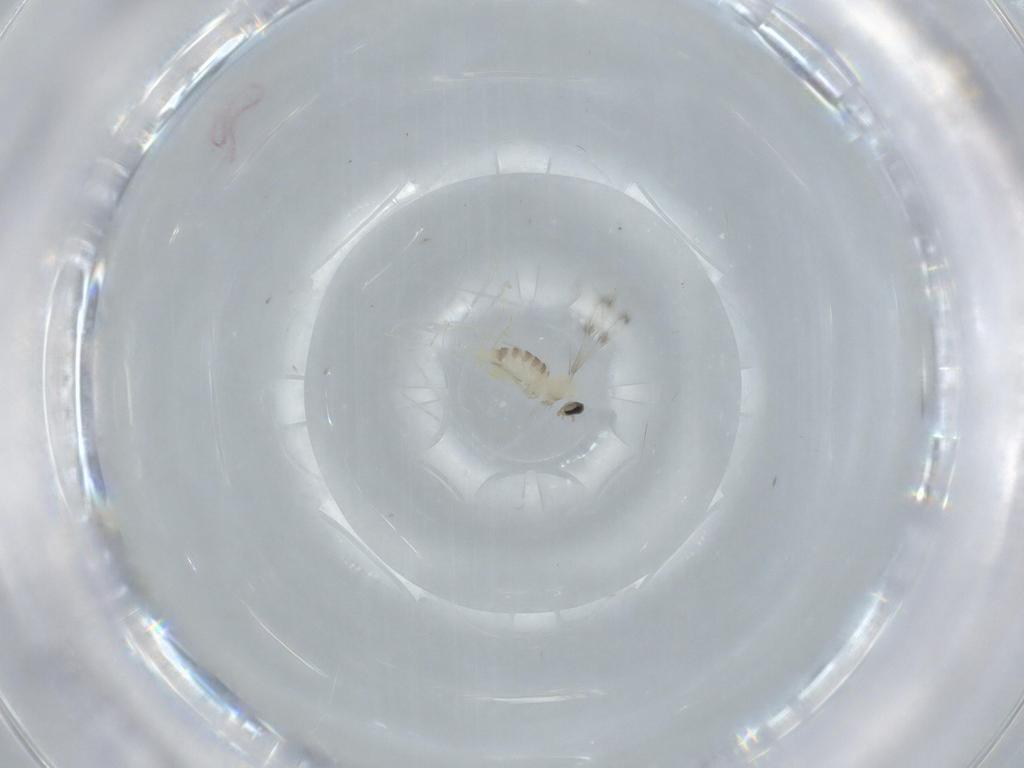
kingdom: Animalia
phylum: Arthropoda
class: Insecta
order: Diptera
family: Cecidomyiidae
